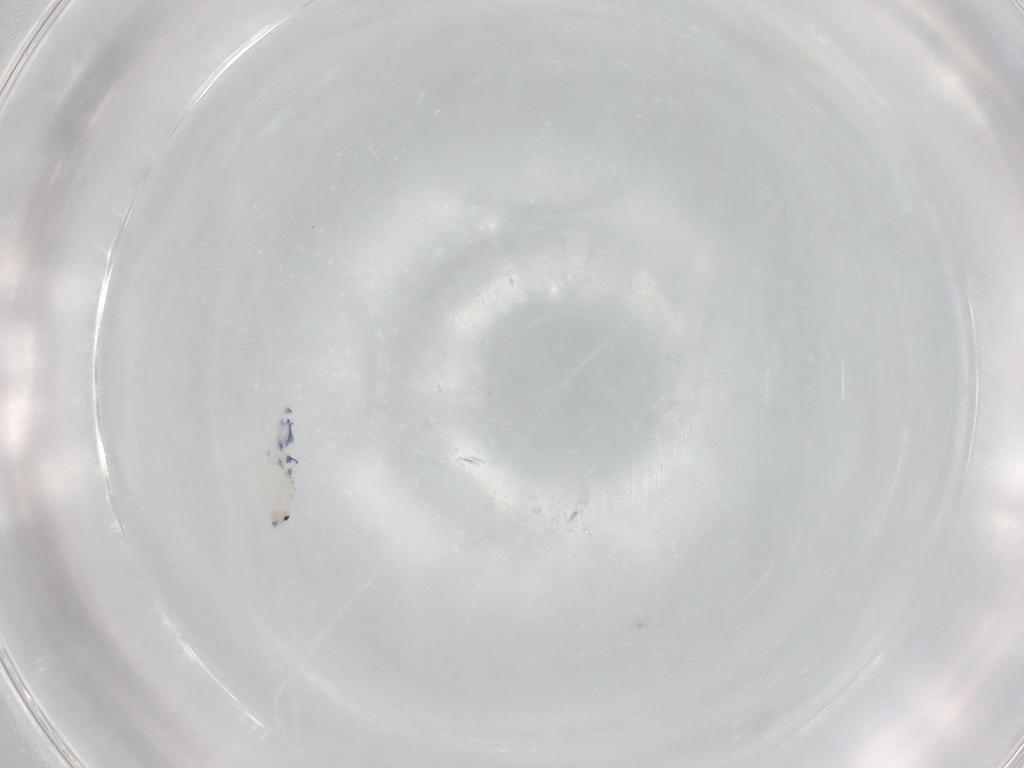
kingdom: Animalia
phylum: Arthropoda
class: Collembola
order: Entomobryomorpha
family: Entomobryidae
